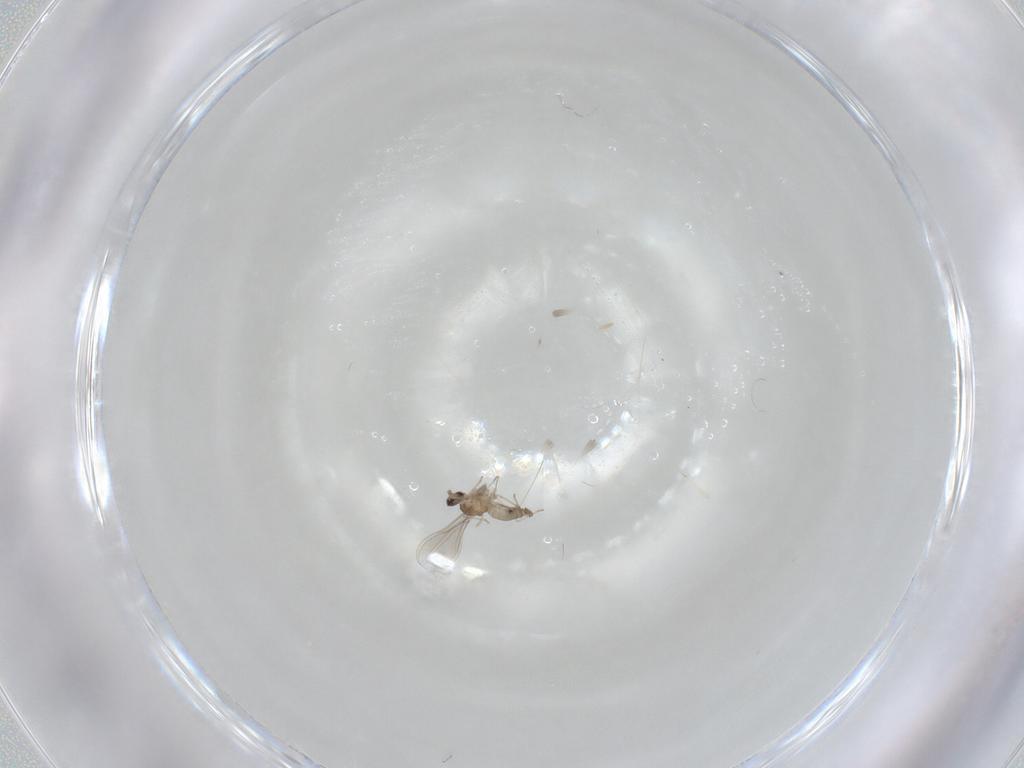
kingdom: Animalia
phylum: Arthropoda
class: Insecta
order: Diptera
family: Cecidomyiidae
